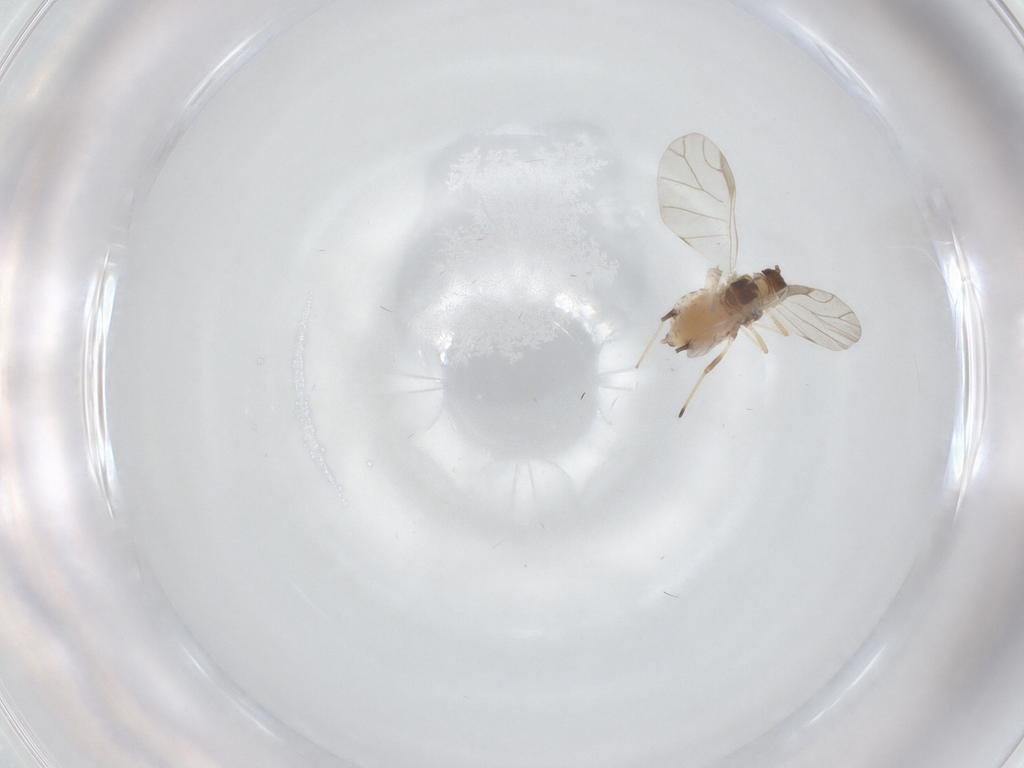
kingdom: Animalia
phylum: Arthropoda
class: Insecta
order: Hemiptera
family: Aphididae
